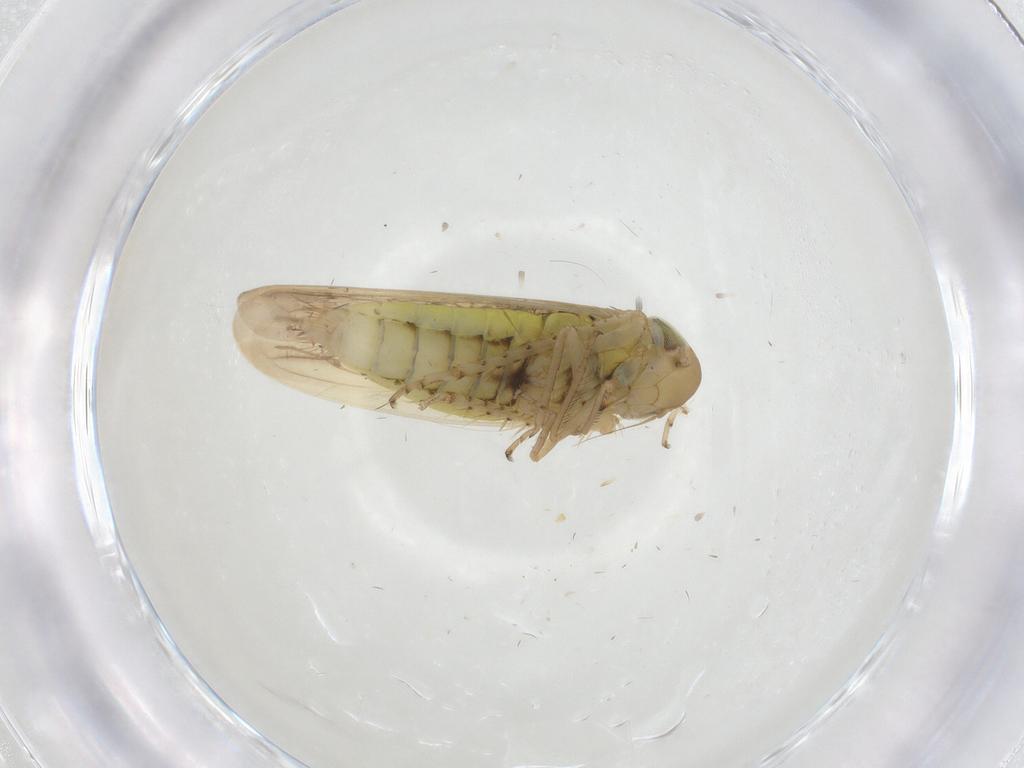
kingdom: Animalia
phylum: Arthropoda
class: Insecta
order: Hemiptera
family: Cicadellidae
